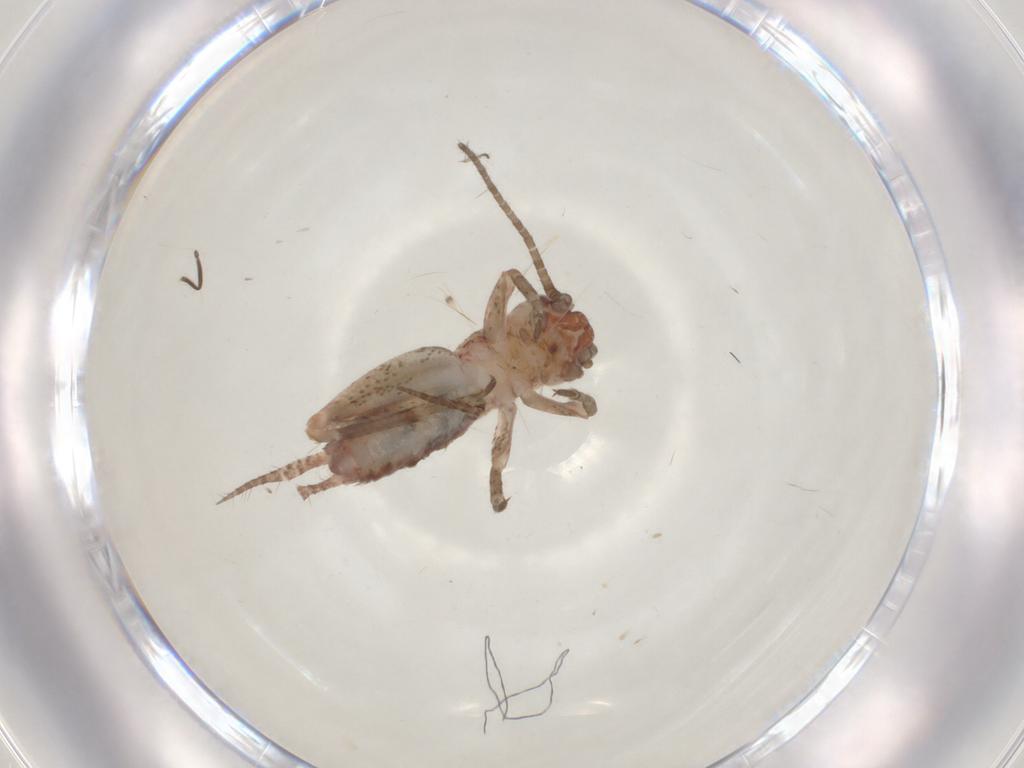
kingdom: Animalia
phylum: Arthropoda
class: Insecta
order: Orthoptera
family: Mogoplistidae
